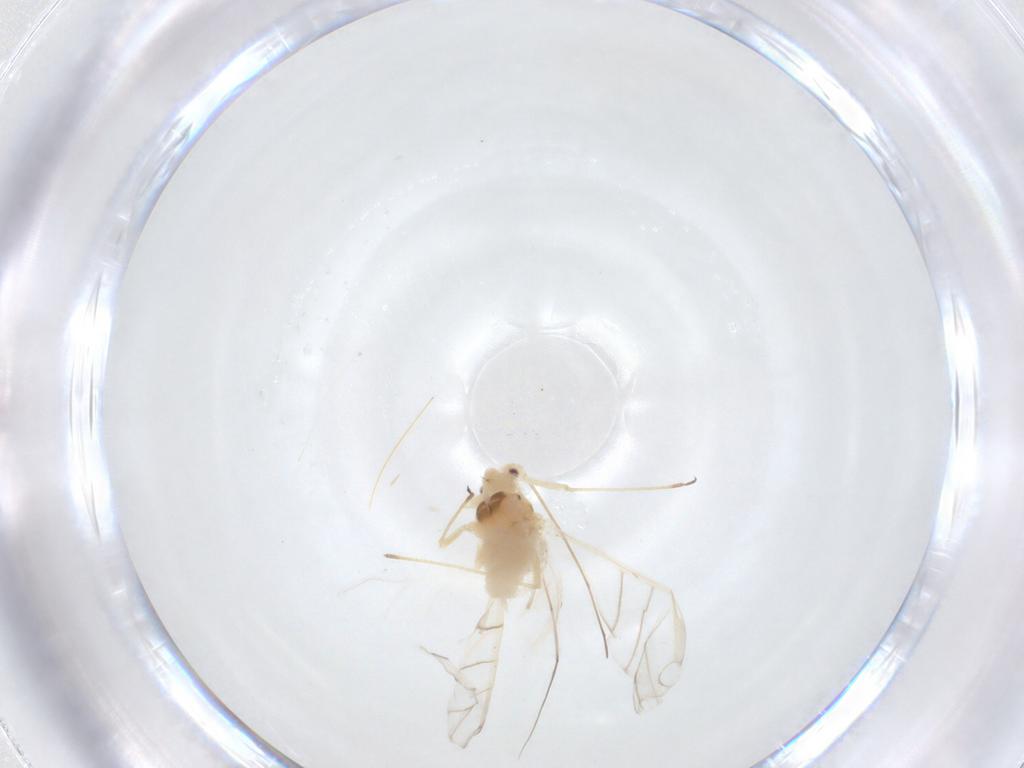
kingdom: Animalia
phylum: Arthropoda
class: Insecta
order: Hemiptera
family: Aphididae
